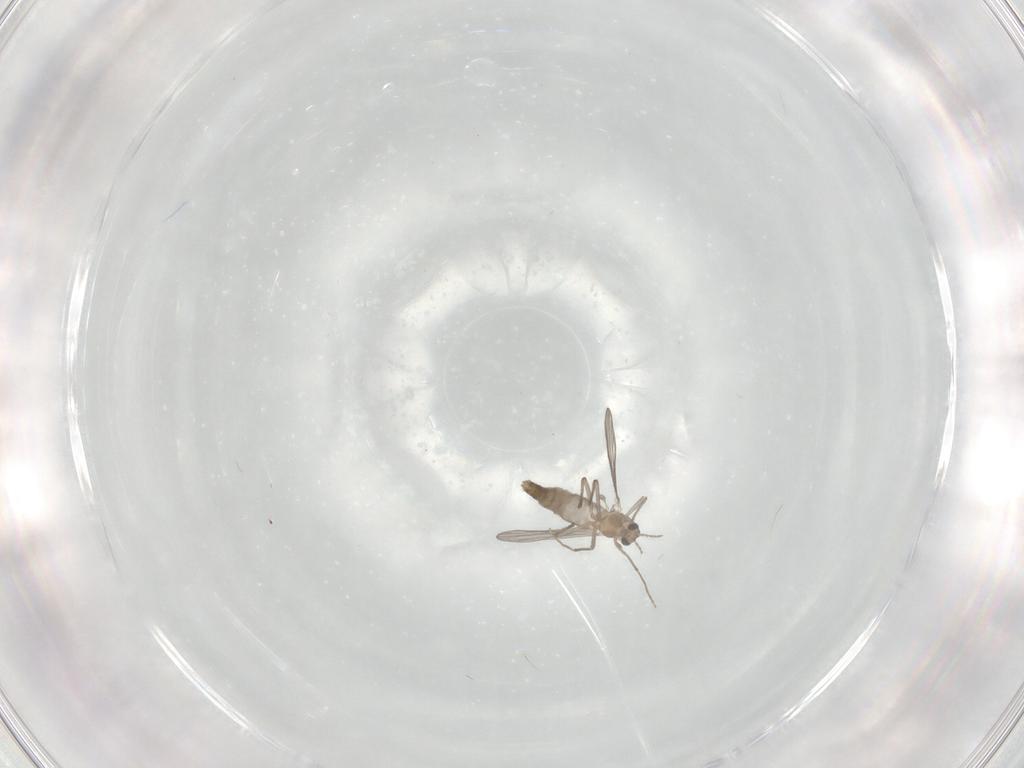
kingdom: Animalia
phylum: Arthropoda
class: Insecta
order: Diptera
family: Chironomidae
